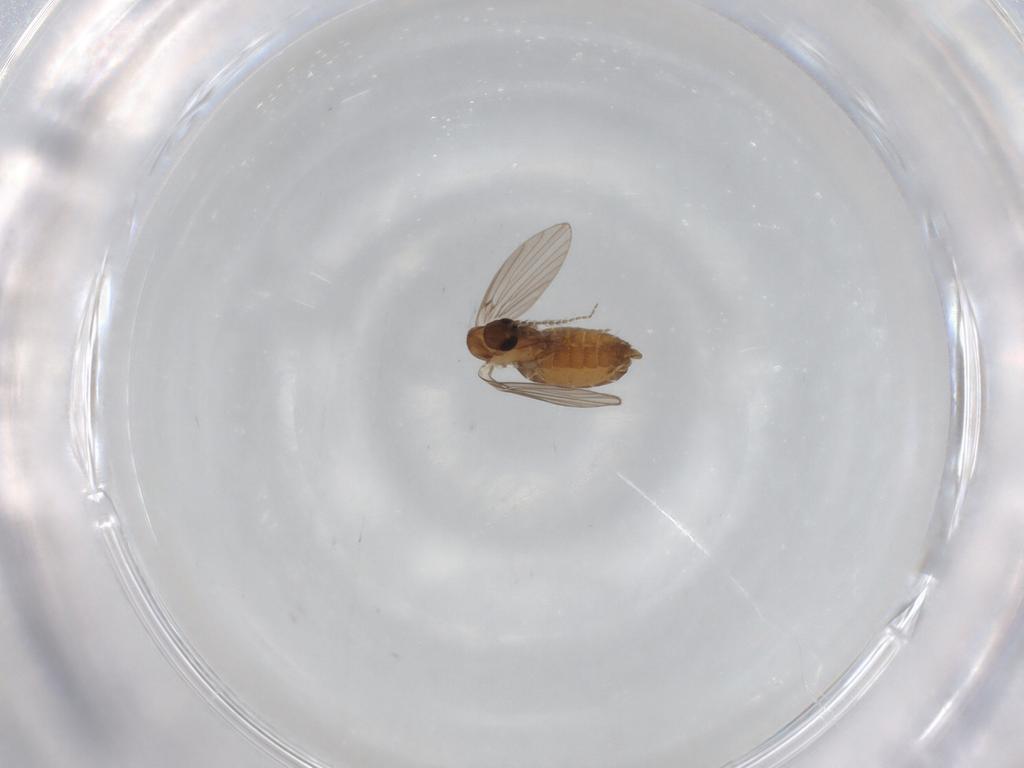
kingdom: Animalia
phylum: Arthropoda
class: Insecta
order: Diptera
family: Psychodidae
